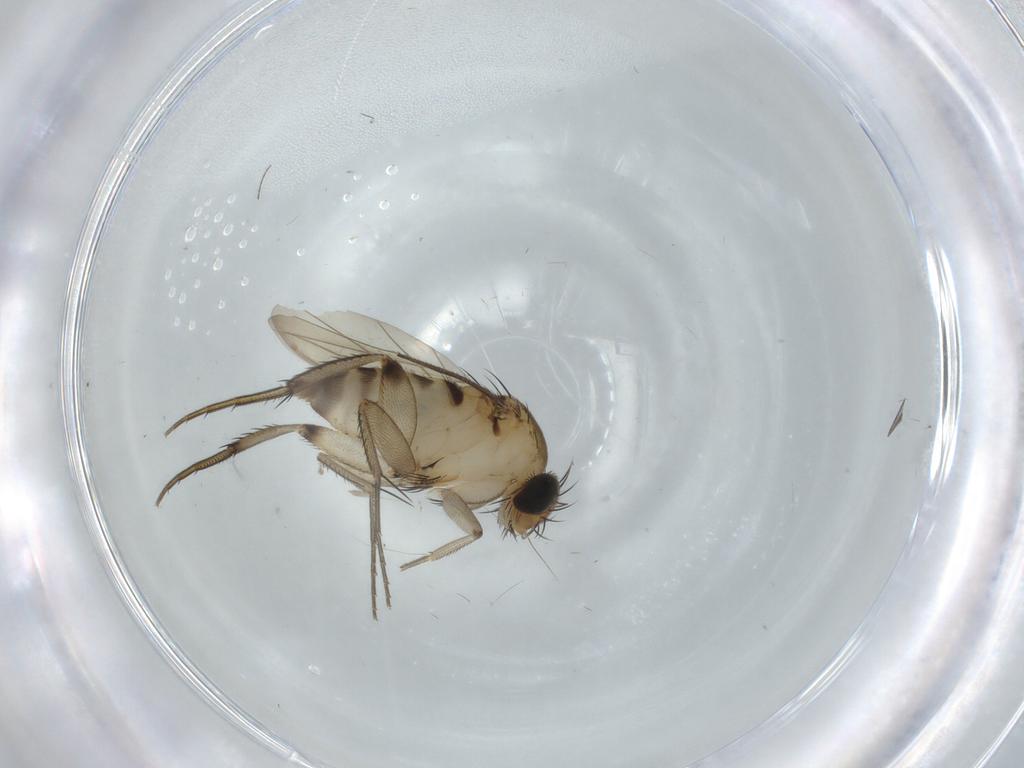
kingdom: Animalia
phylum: Arthropoda
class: Insecta
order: Diptera
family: Phoridae
